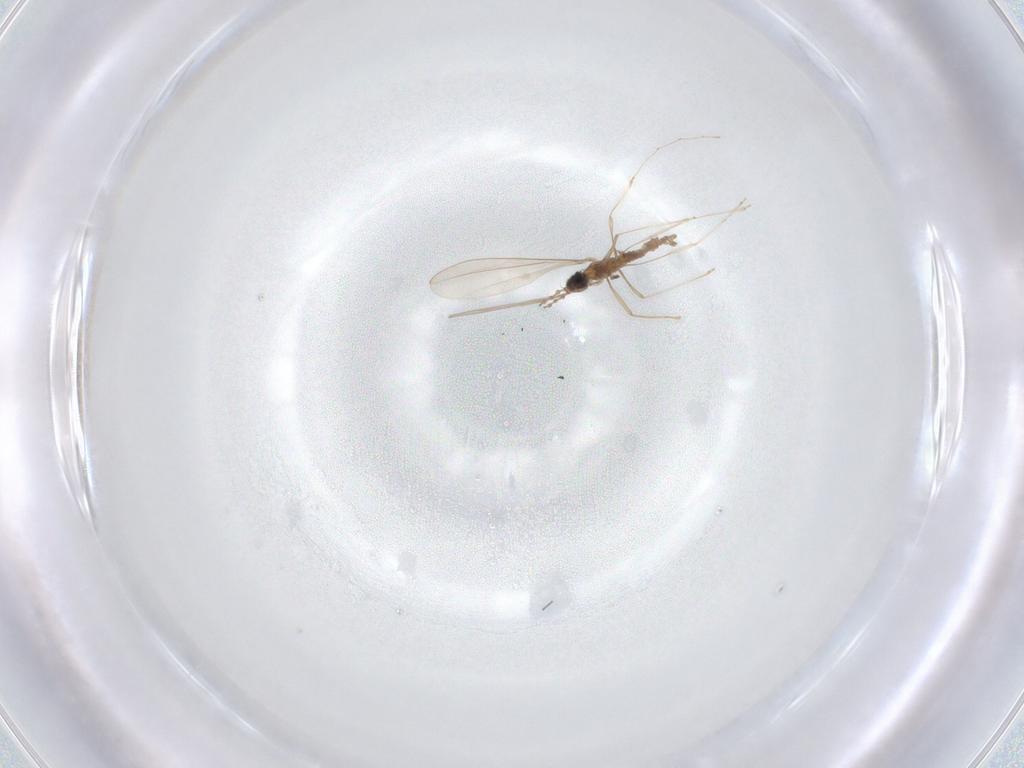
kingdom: Animalia
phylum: Arthropoda
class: Insecta
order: Diptera
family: Cecidomyiidae
